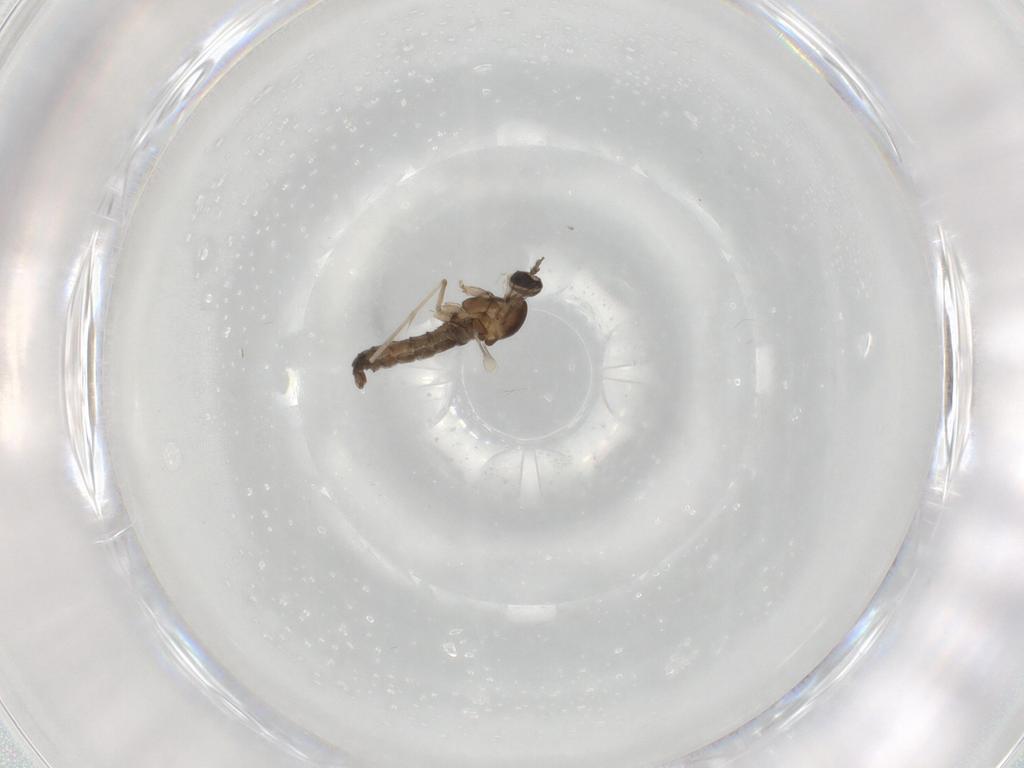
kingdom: Animalia
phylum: Arthropoda
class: Insecta
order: Diptera
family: Cecidomyiidae
